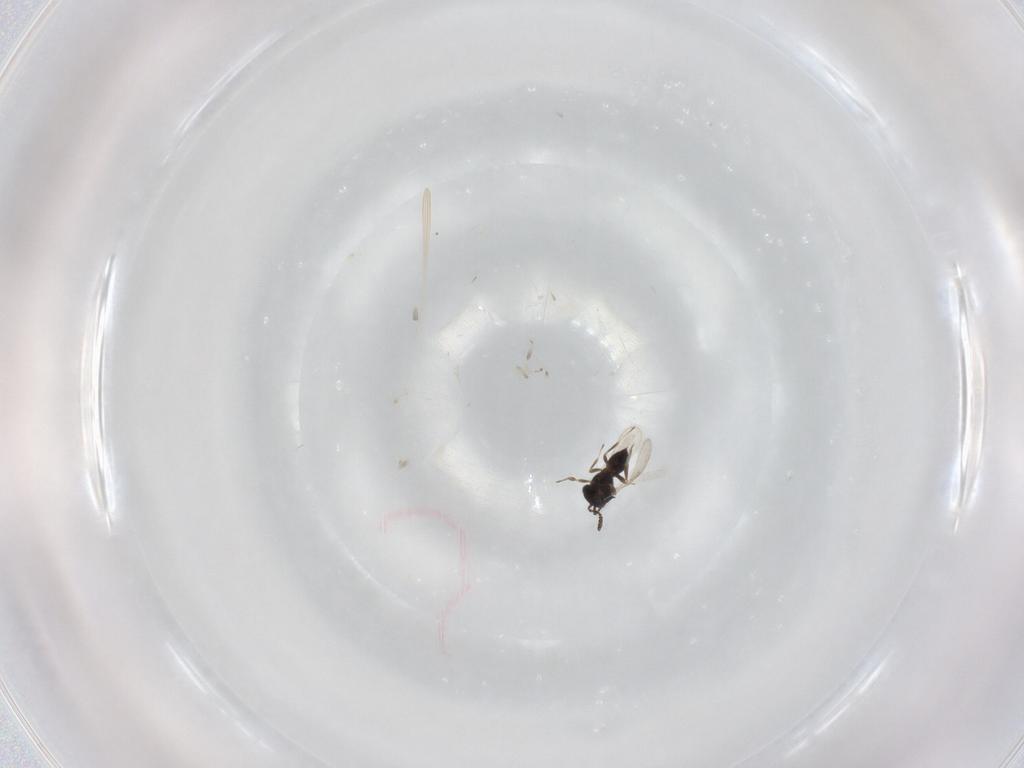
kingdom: Animalia
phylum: Arthropoda
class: Insecta
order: Hymenoptera
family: Scelionidae
